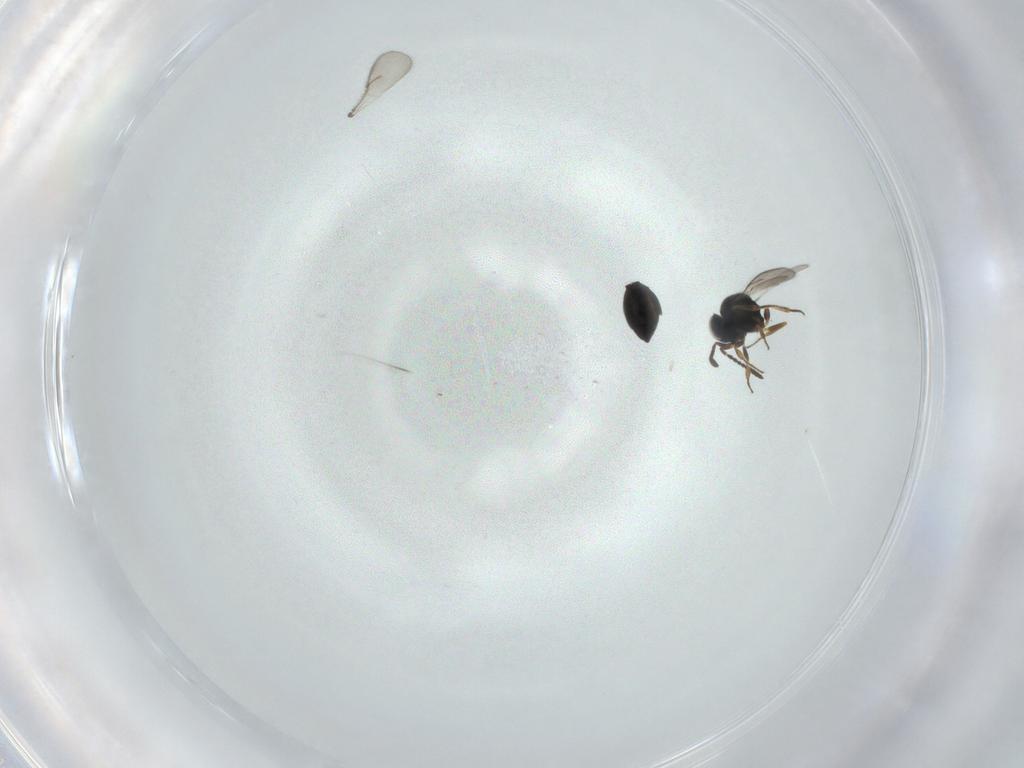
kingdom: Animalia
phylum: Arthropoda
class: Insecta
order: Hymenoptera
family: Scelionidae
